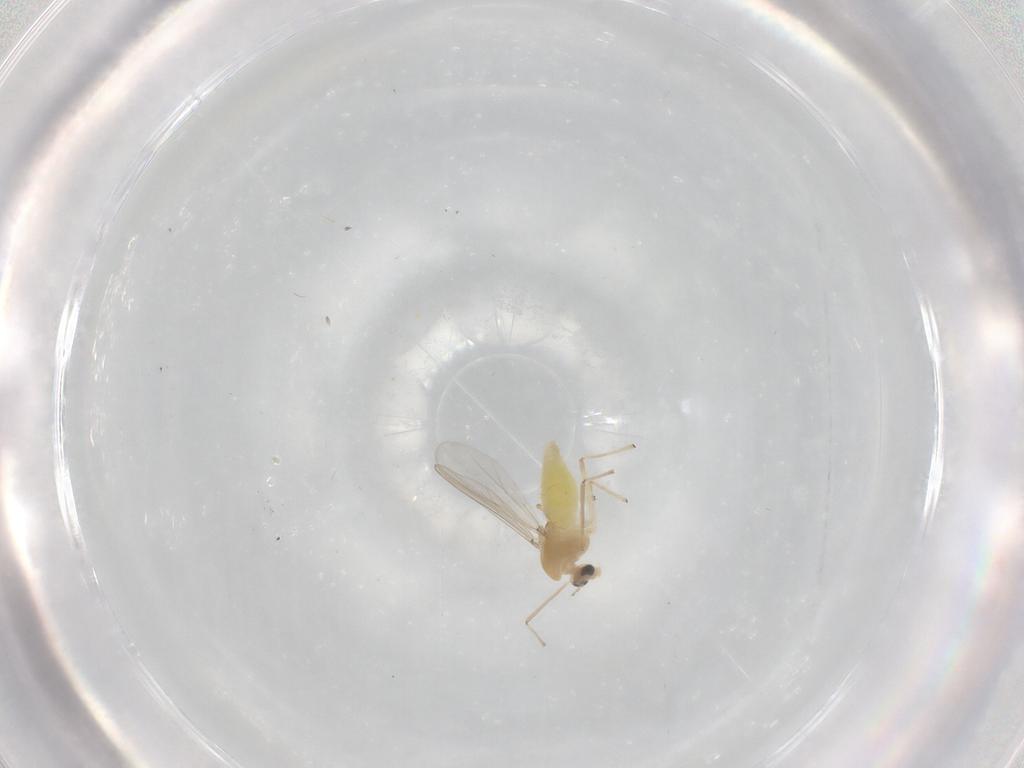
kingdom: Animalia
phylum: Arthropoda
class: Insecta
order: Diptera
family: Chironomidae
